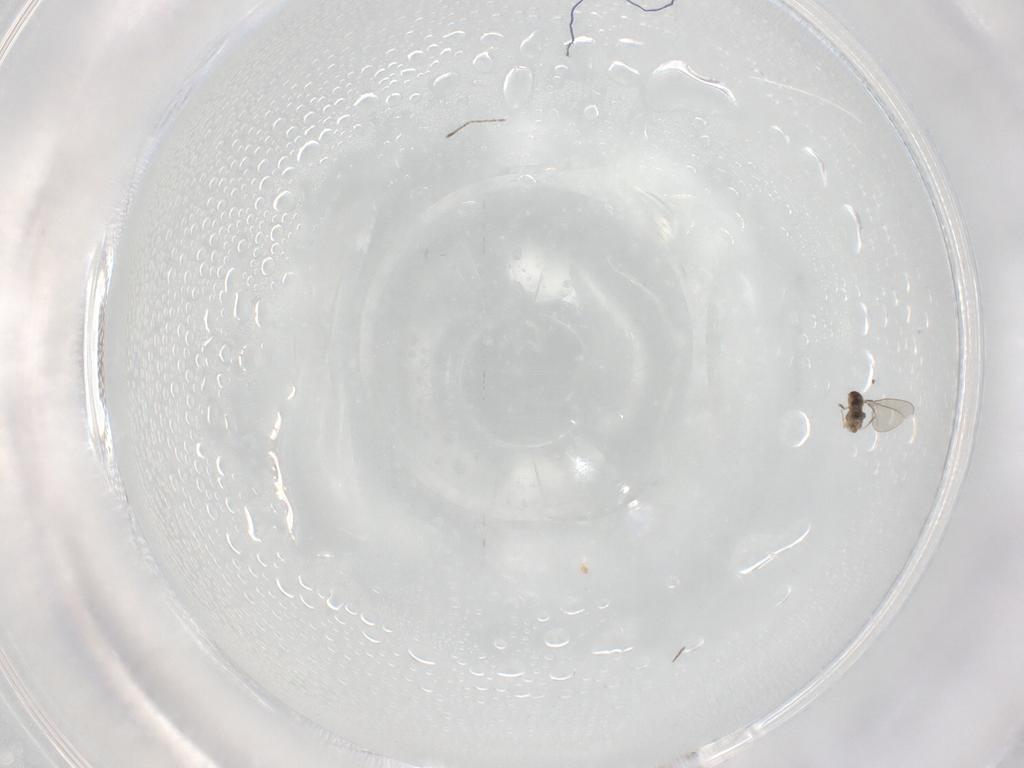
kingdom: Animalia
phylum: Arthropoda
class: Insecta
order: Diptera
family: Cecidomyiidae
